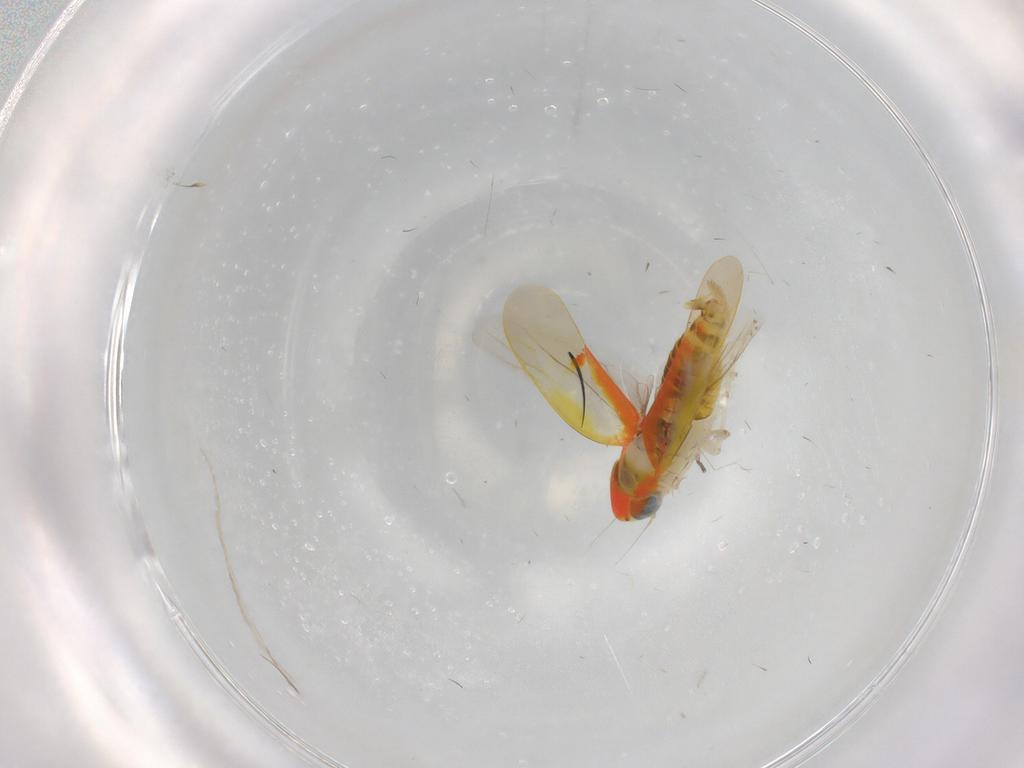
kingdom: Animalia
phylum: Arthropoda
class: Insecta
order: Hemiptera
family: Cicadellidae
